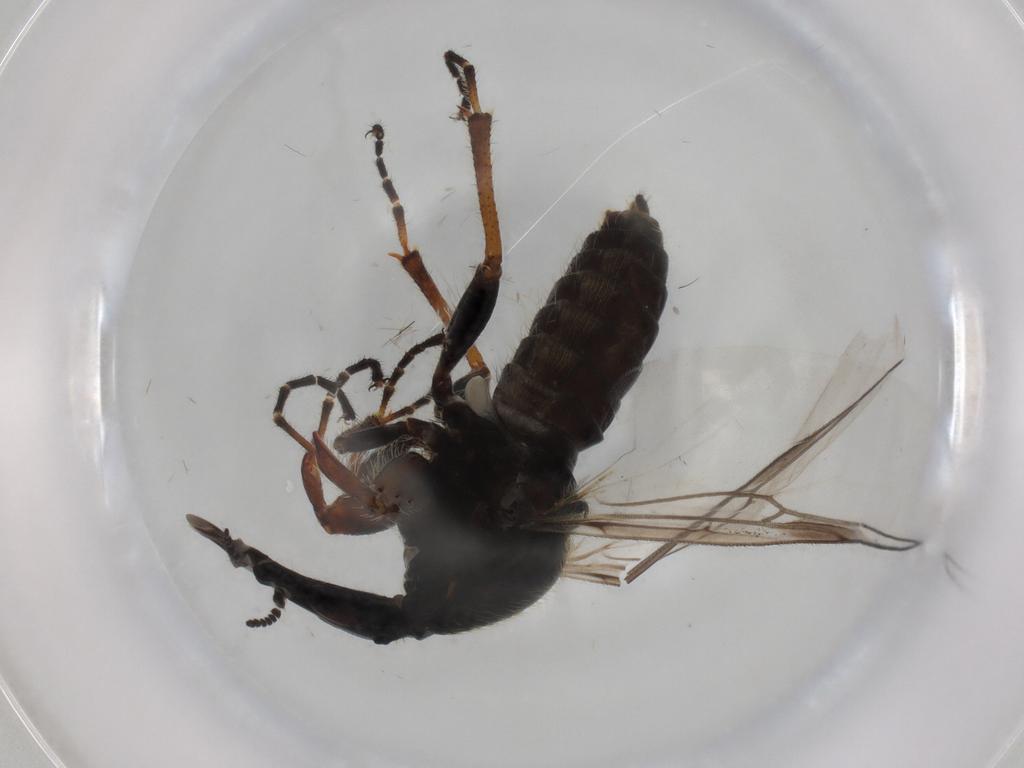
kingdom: Animalia
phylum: Arthropoda
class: Insecta
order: Diptera
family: Bibionidae
